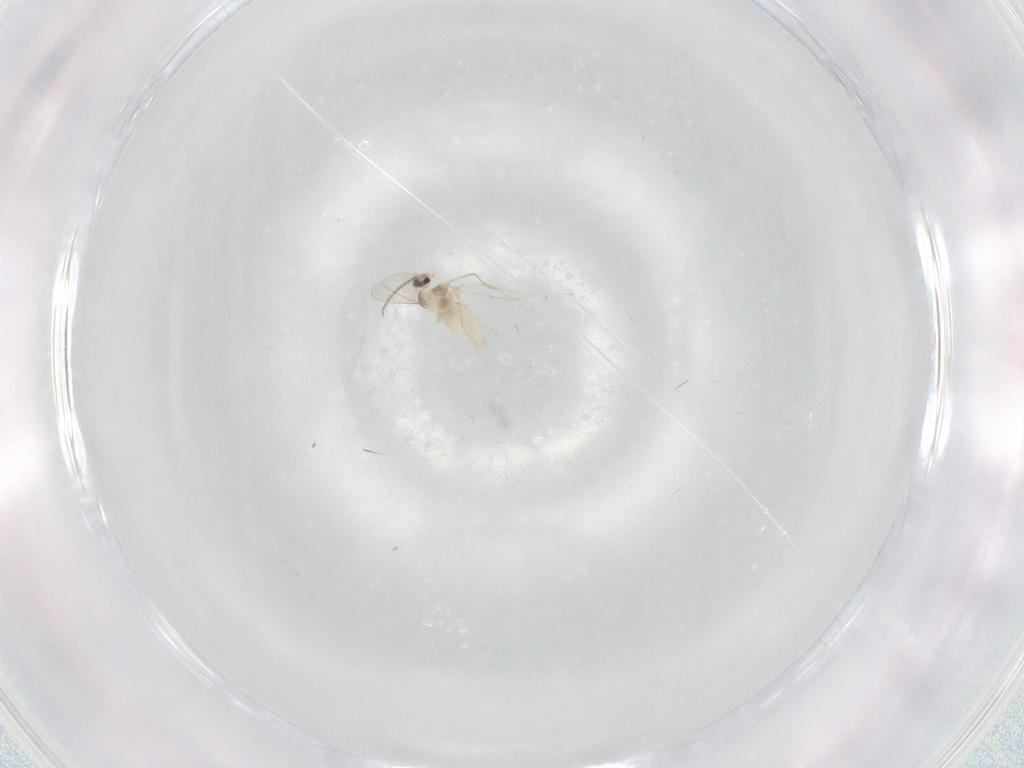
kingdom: Animalia
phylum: Arthropoda
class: Insecta
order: Diptera
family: Cecidomyiidae
